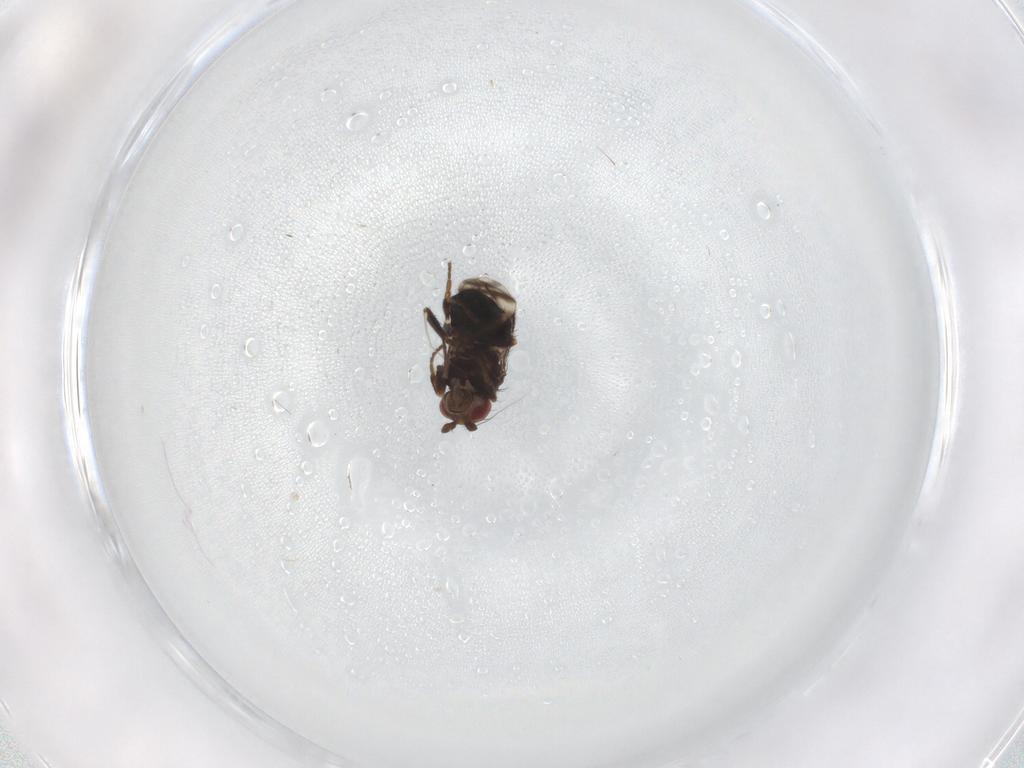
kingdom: Animalia
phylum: Arthropoda
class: Insecta
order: Diptera
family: Sphaeroceridae
